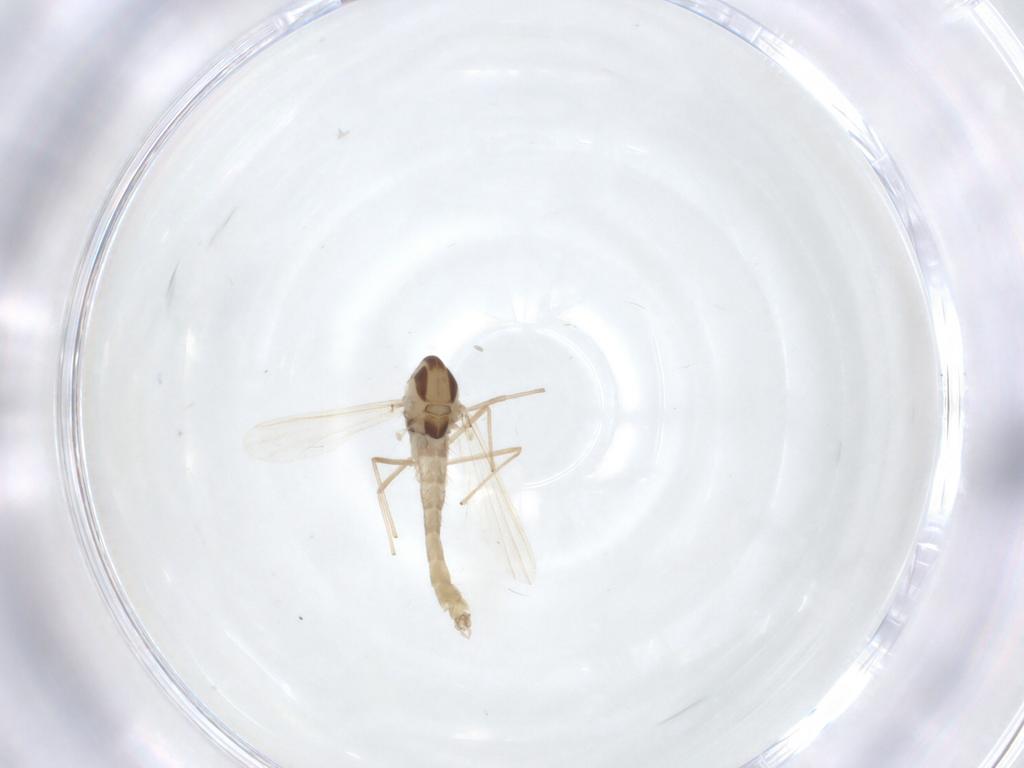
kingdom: Animalia
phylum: Arthropoda
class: Insecta
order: Diptera
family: Chironomidae
